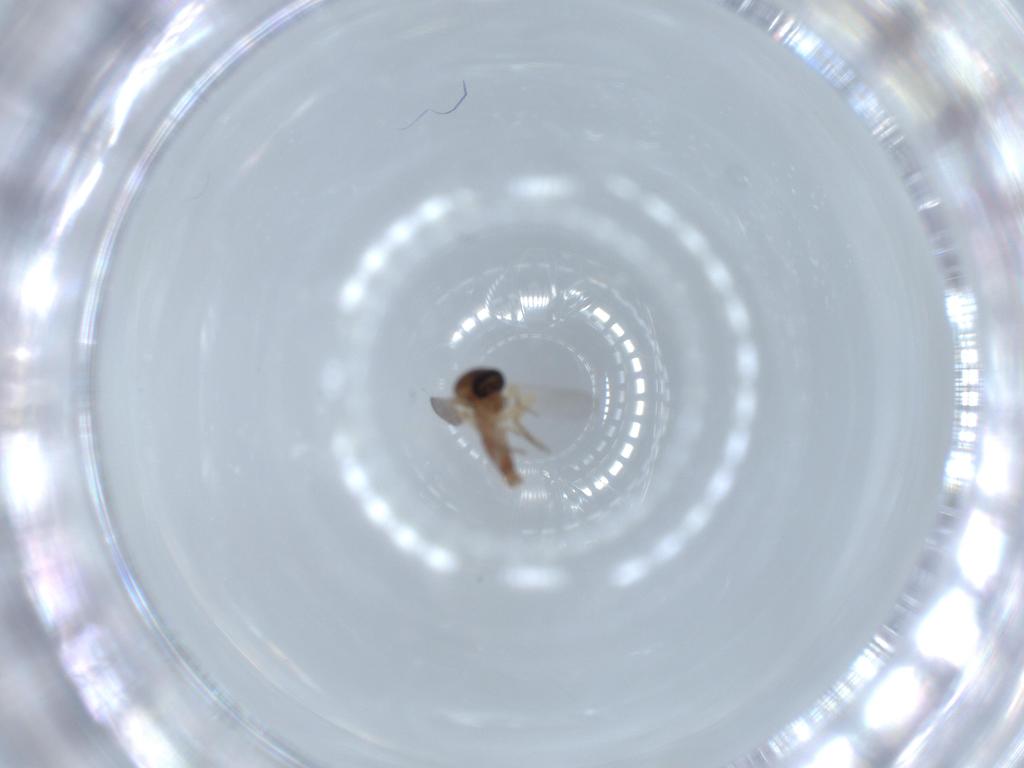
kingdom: Animalia
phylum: Arthropoda
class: Insecta
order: Diptera
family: Ceratopogonidae
